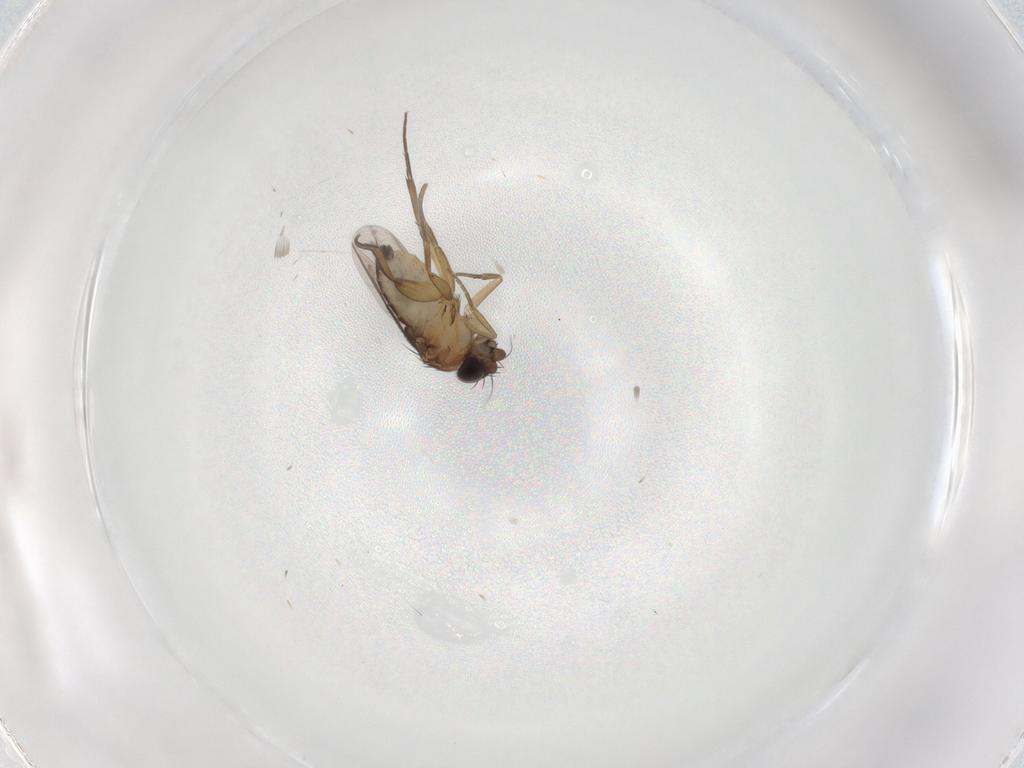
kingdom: Animalia
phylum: Arthropoda
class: Insecta
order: Diptera
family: Phoridae
